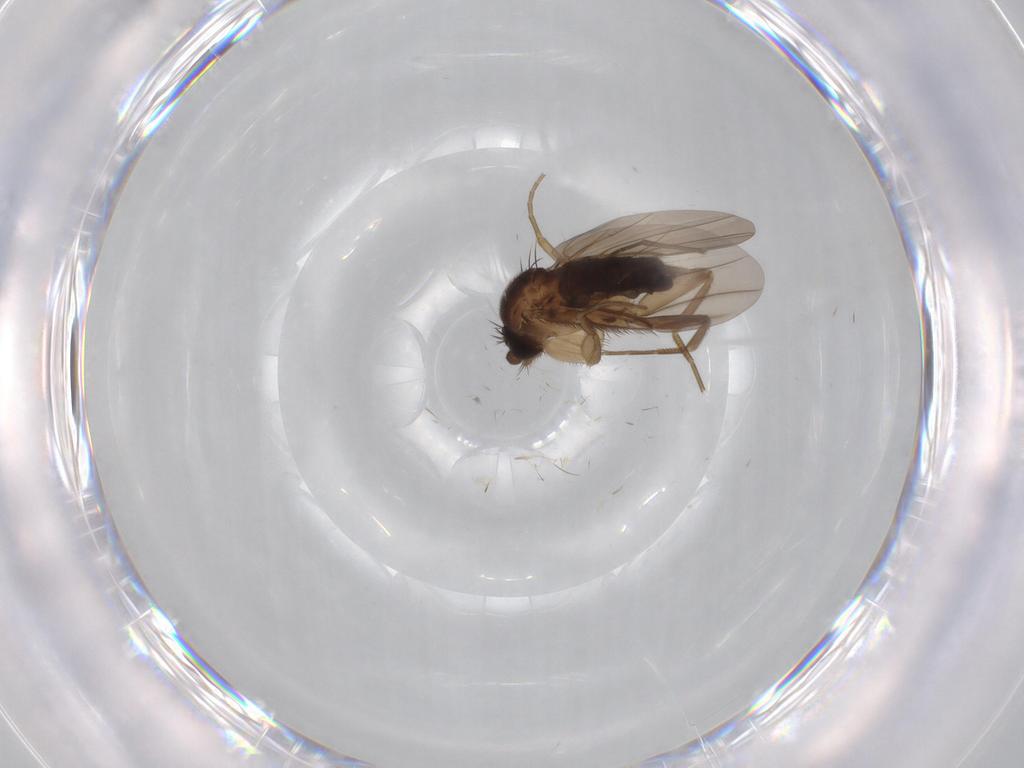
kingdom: Animalia
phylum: Arthropoda
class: Insecta
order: Diptera
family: Phoridae
